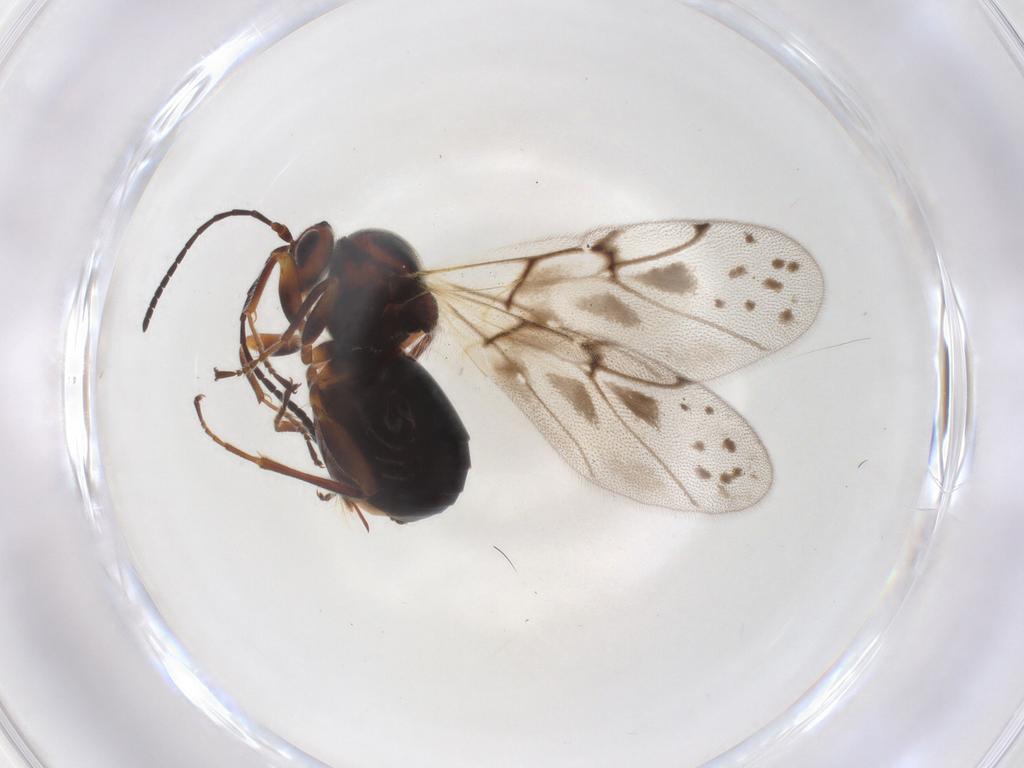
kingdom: Animalia
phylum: Arthropoda
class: Insecta
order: Hymenoptera
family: Cynipidae
